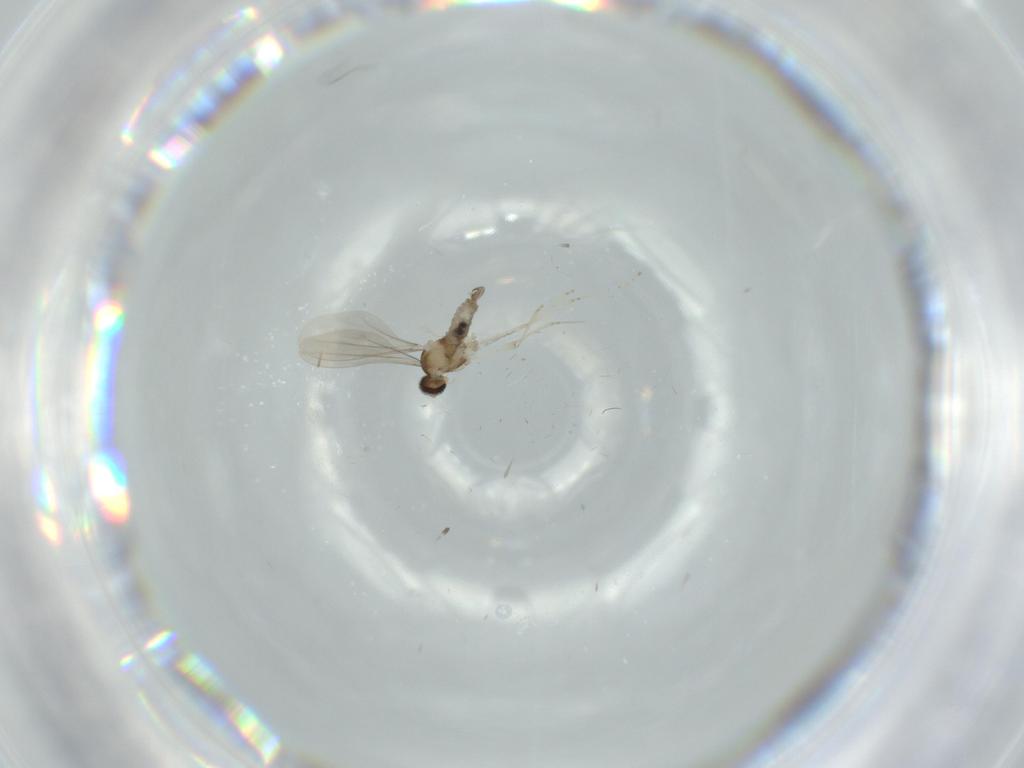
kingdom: Animalia
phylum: Arthropoda
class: Insecta
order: Diptera
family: Cecidomyiidae
